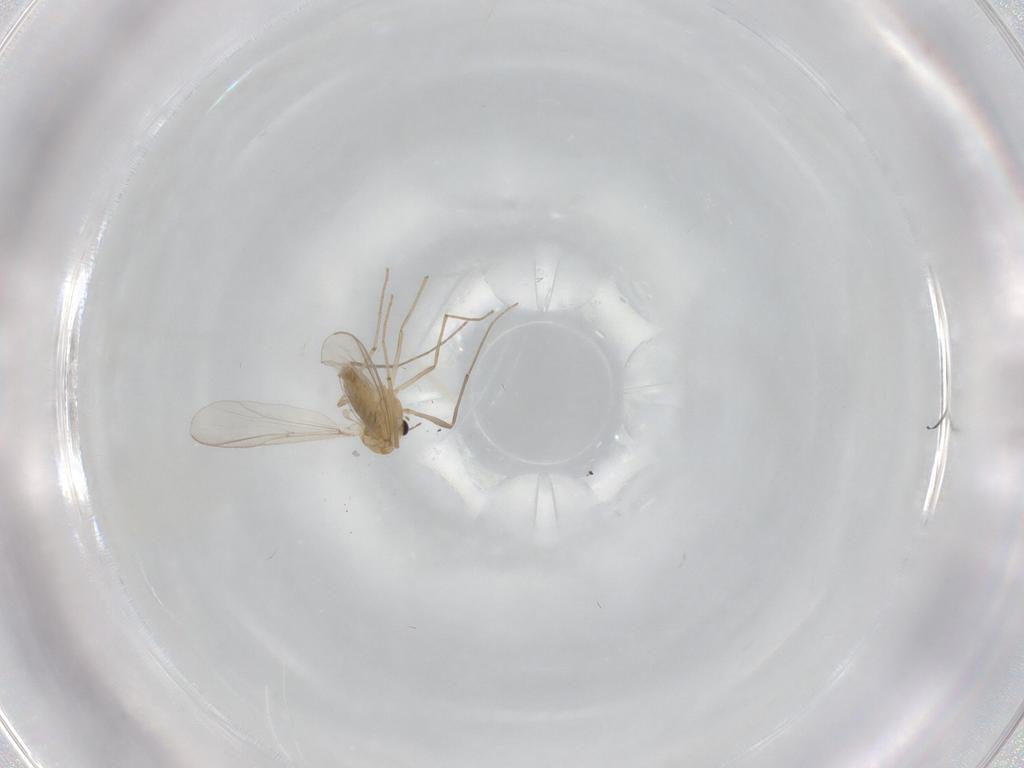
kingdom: Animalia
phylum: Arthropoda
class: Insecta
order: Diptera
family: Chironomidae
